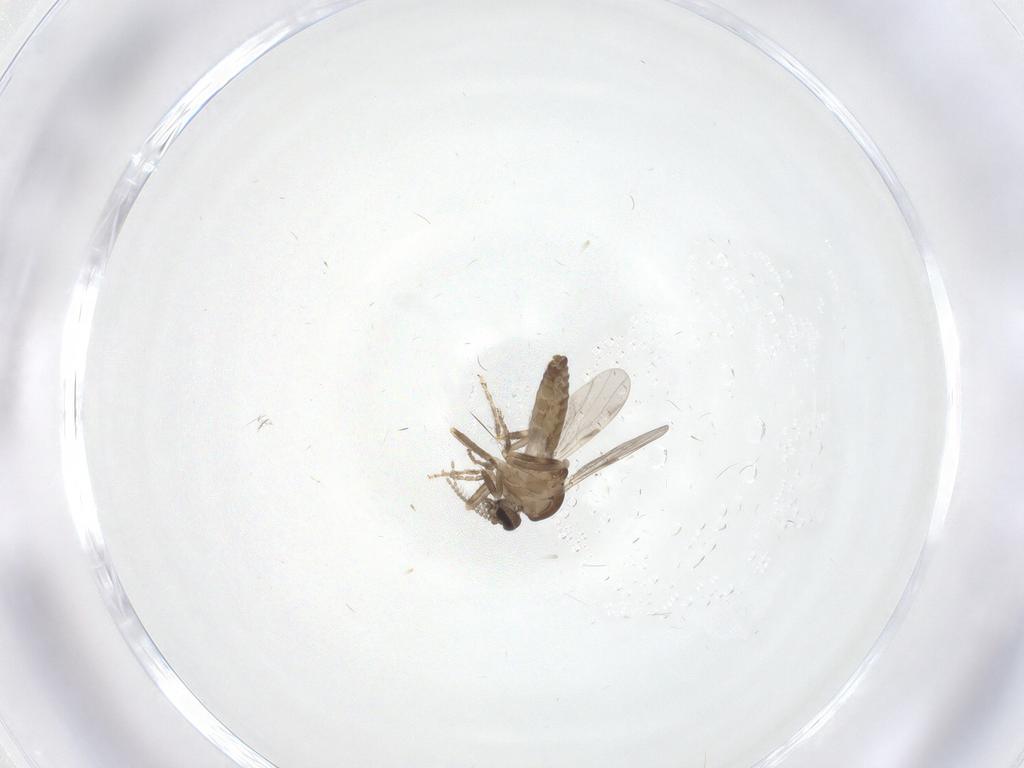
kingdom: Animalia
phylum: Arthropoda
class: Insecta
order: Diptera
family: Ceratopogonidae
